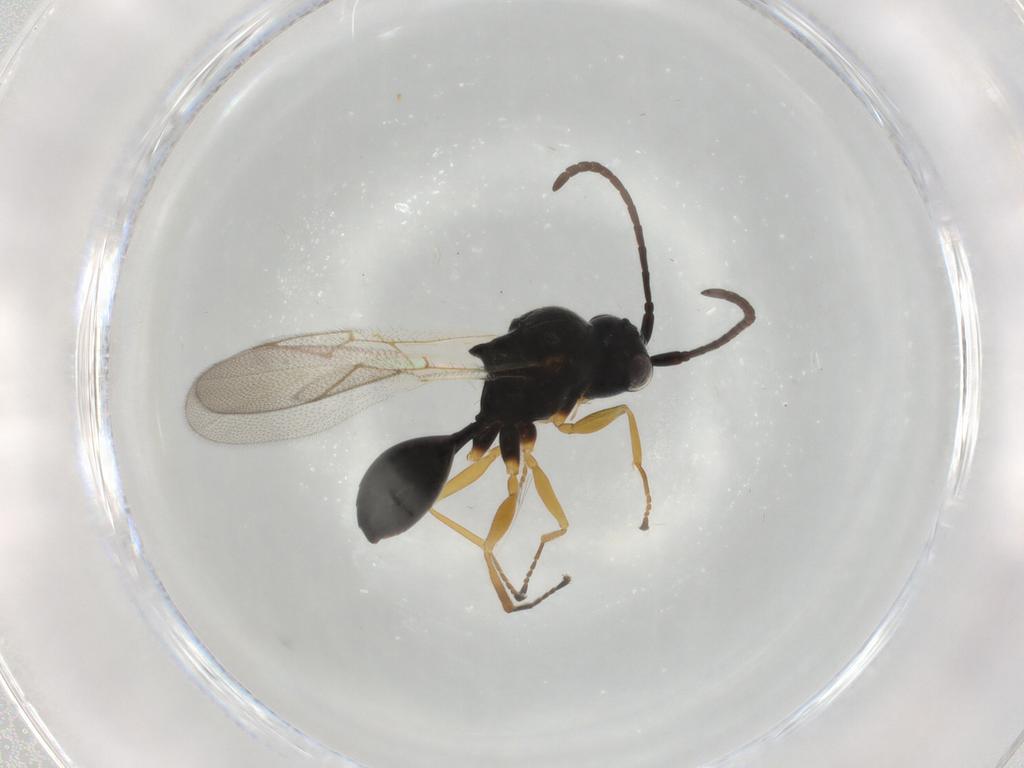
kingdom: Animalia
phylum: Arthropoda
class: Insecta
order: Hymenoptera
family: Figitidae
